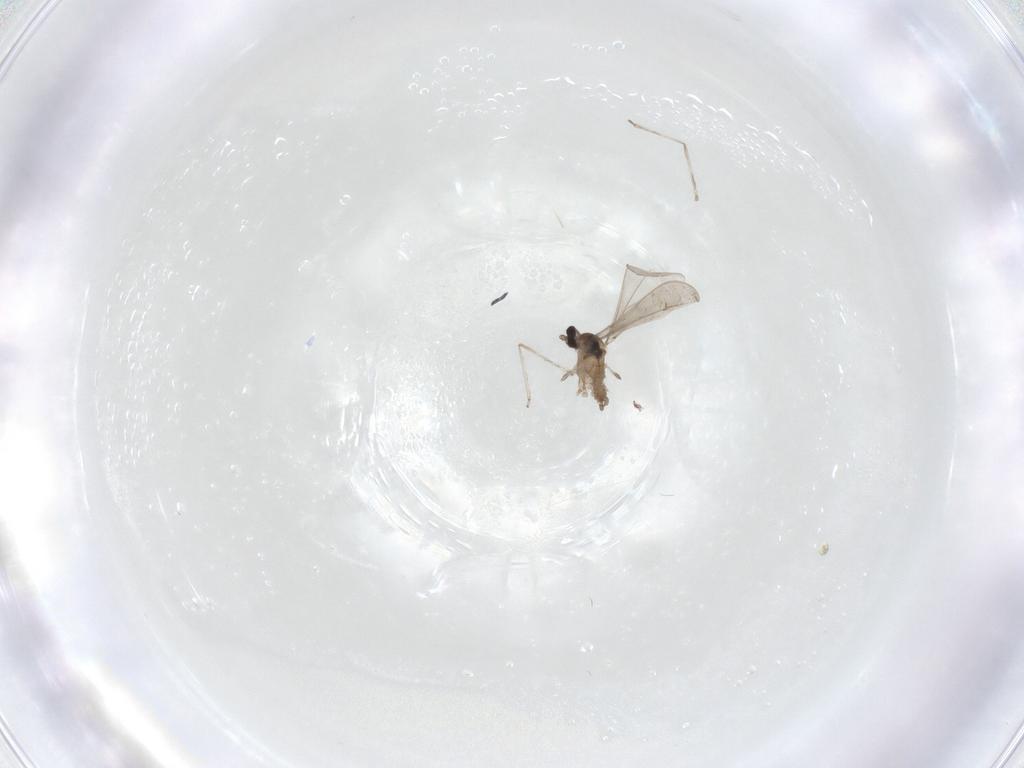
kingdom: Animalia
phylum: Arthropoda
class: Insecta
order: Diptera
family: Cecidomyiidae
